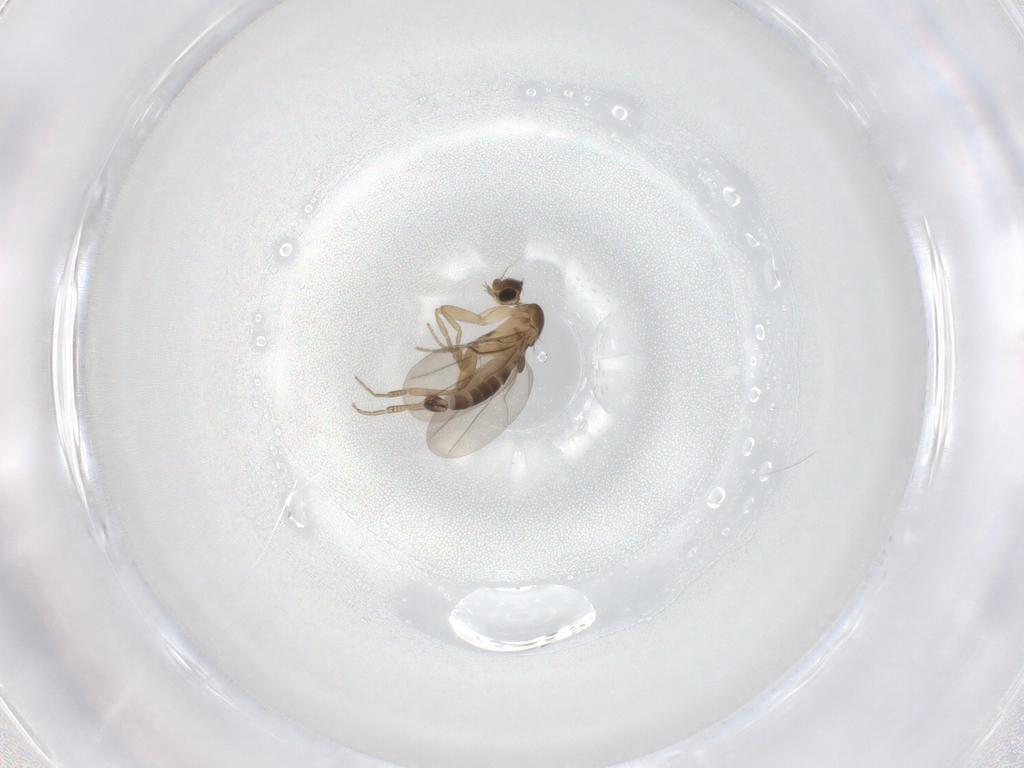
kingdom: Animalia
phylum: Arthropoda
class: Insecta
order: Diptera
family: Phoridae
